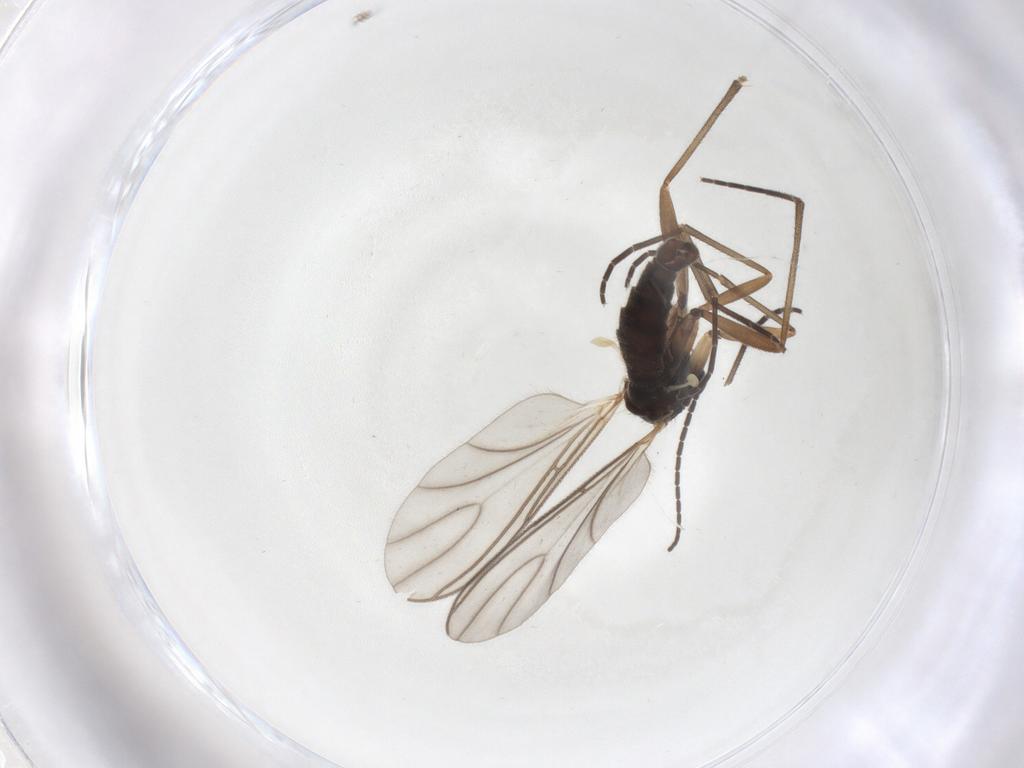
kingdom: Animalia
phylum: Arthropoda
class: Insecta
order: Diptera
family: Sciaridae
